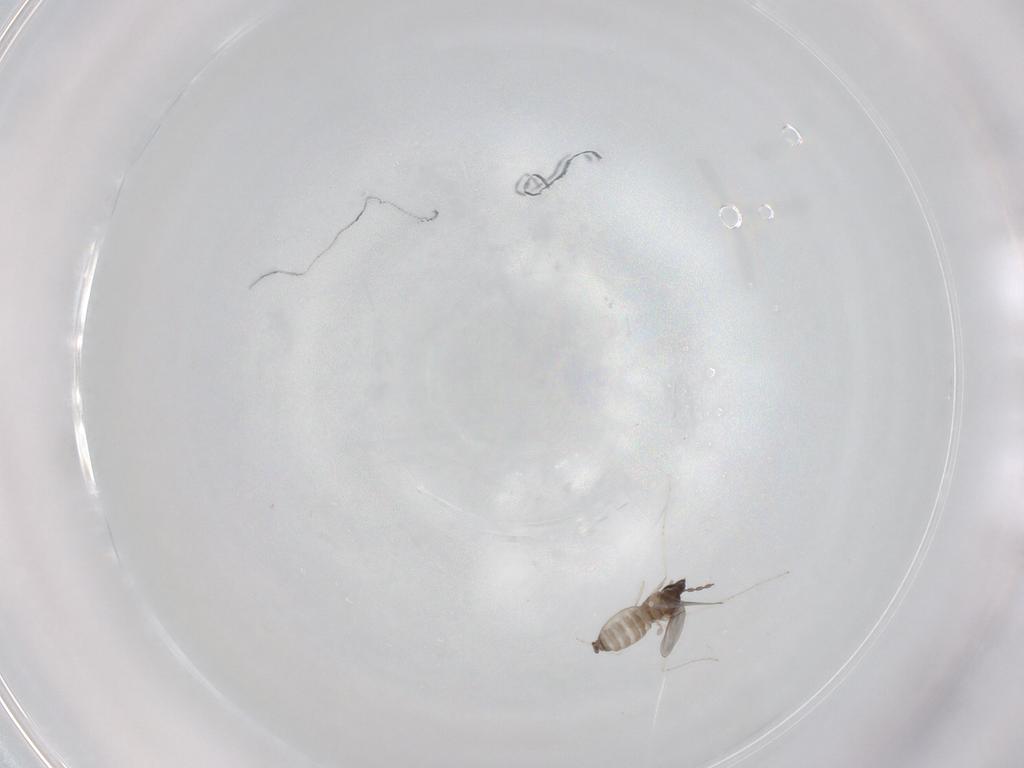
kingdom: Animalia
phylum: Arthropoda
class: Insecta
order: Diptera
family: Cecidomyiidae
